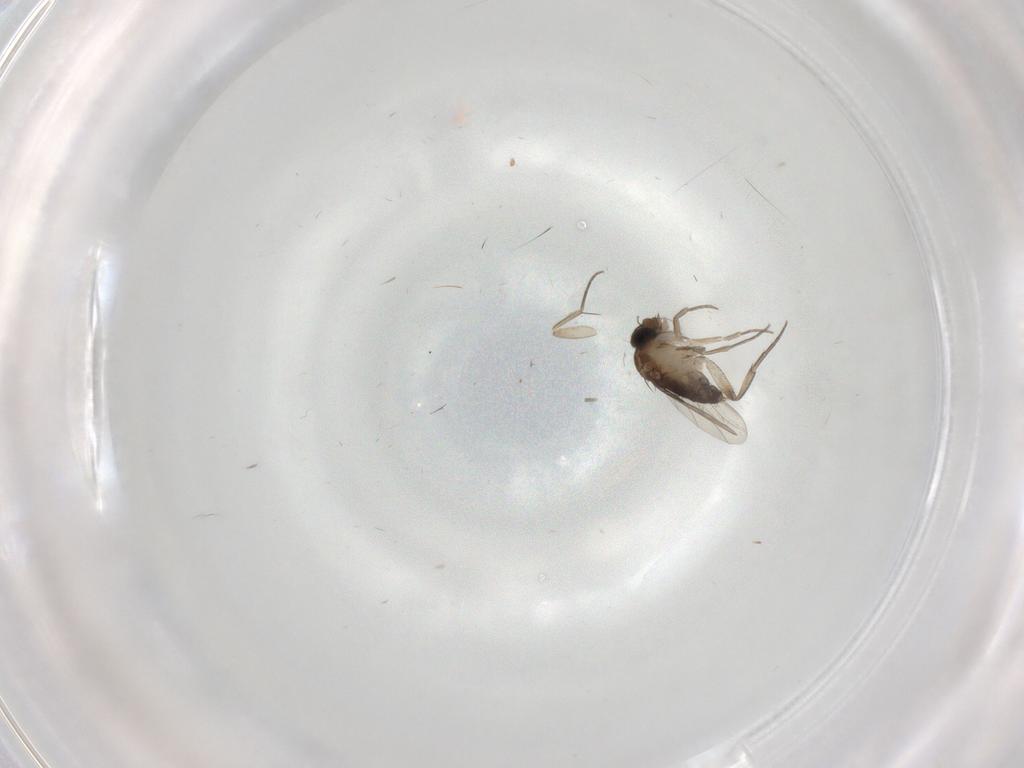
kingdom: Animalia
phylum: Arthropoda
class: Insecta
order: Diptera
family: Phoridae
